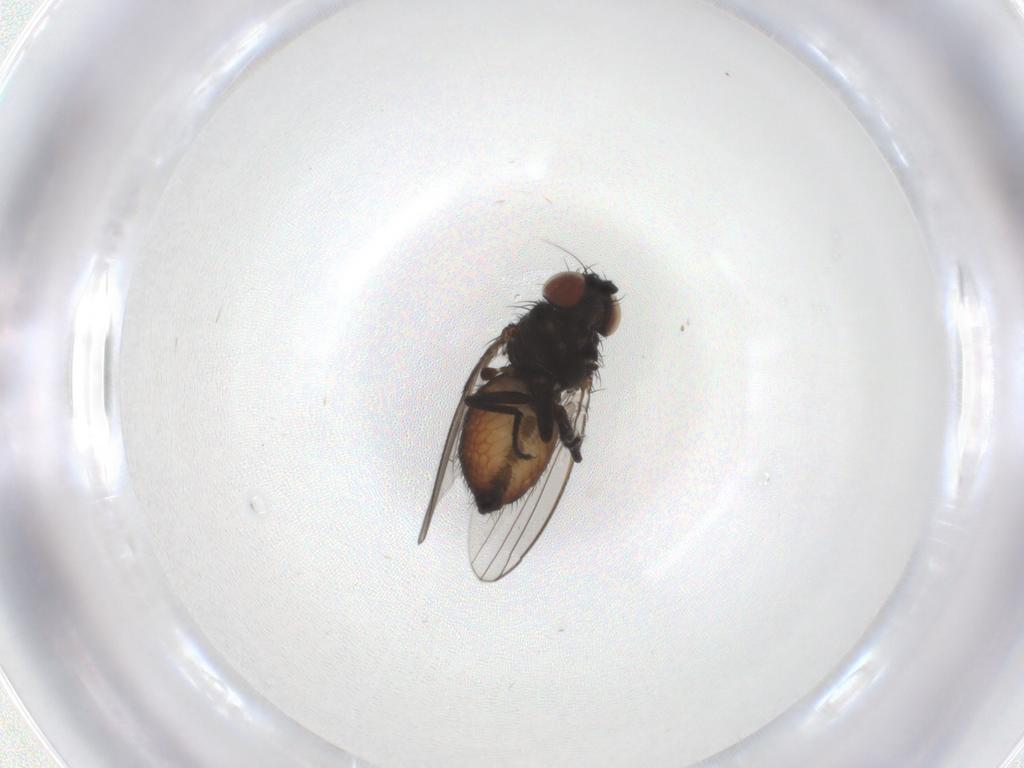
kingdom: Animalia
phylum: Arthropoda
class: Insecta
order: Diptera
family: Milichiidae
